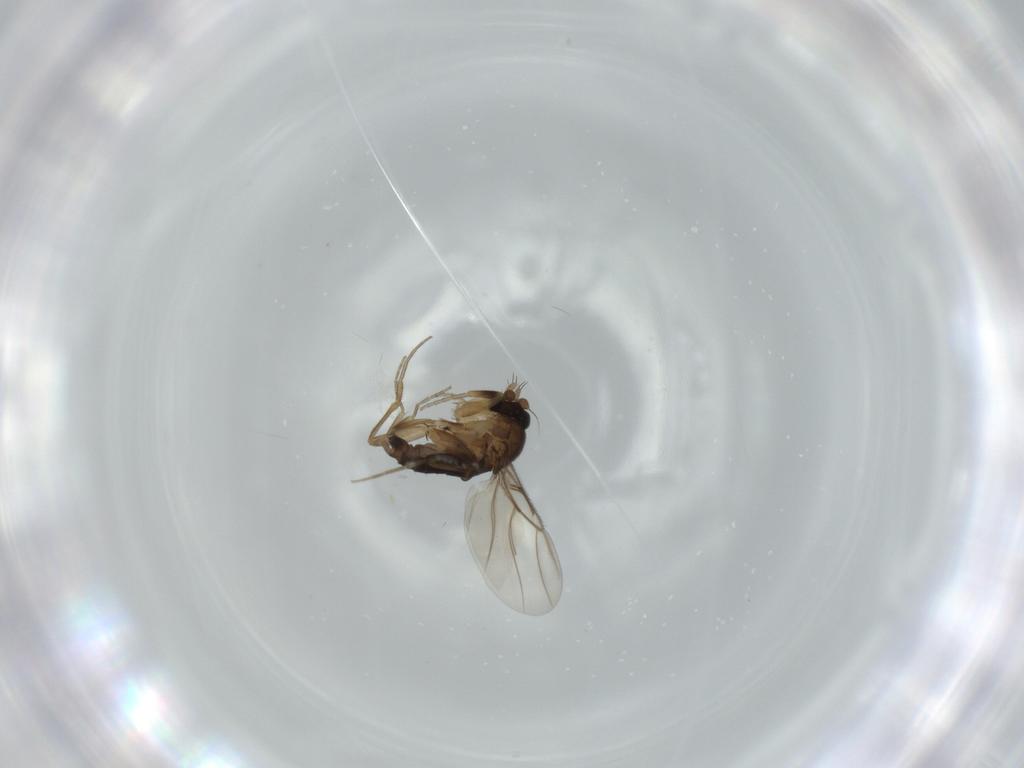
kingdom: Animalia
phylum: Arthropoda
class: Insecta
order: Diptera
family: Phoridae
